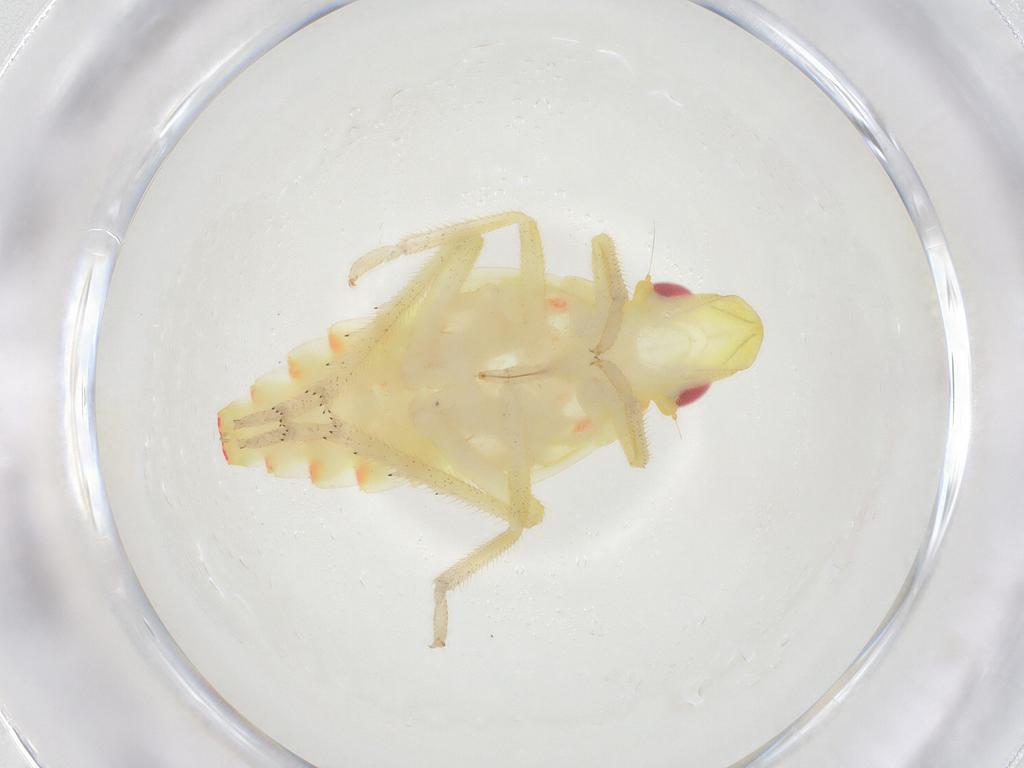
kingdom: Animalia
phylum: Arthropoda
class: Insecta
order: Hemiptera
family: Tropiduchidae
